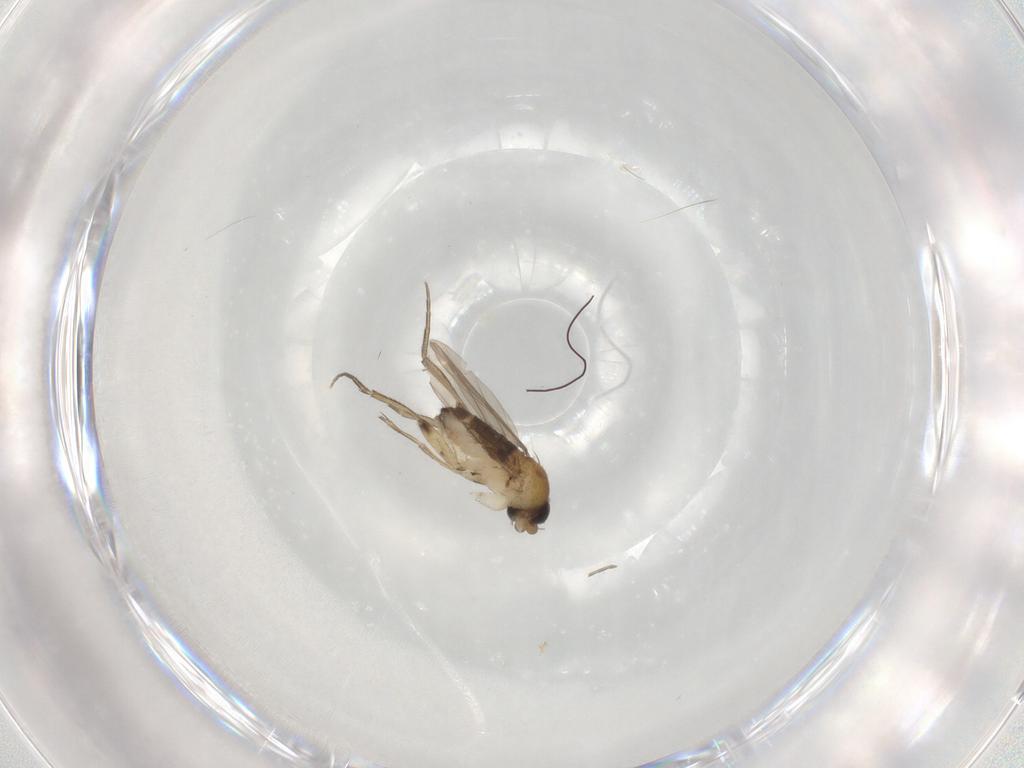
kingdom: Animalia
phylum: Arthropoda
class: Insecta
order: Diptera
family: Phoridae
